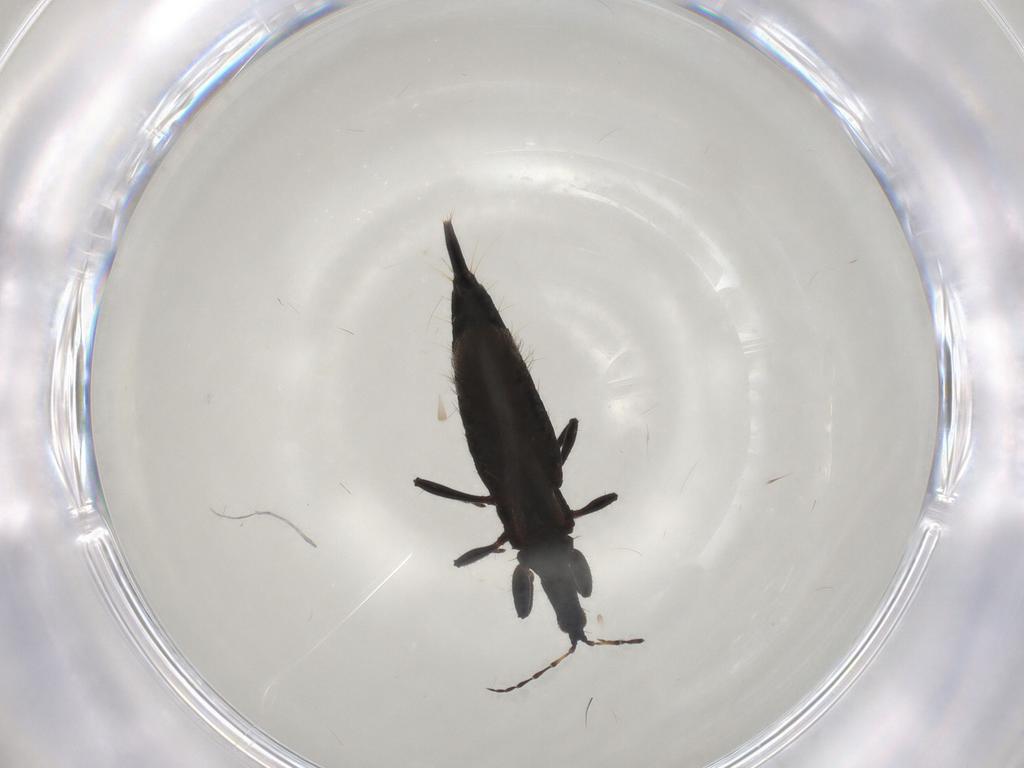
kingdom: Animalia
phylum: Arthropoda
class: Insecta
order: Thysanoptera
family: Phlaeothripidae
